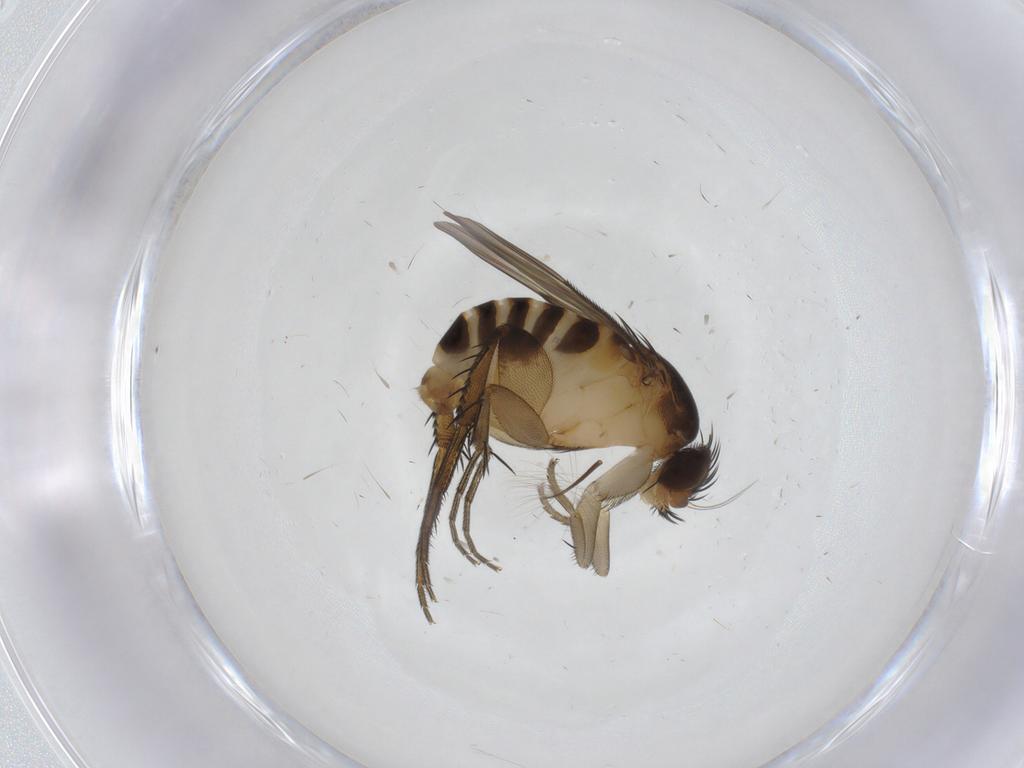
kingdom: Animalia
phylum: Arthropoda
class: Insecta
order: Diptera
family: Phoridae
